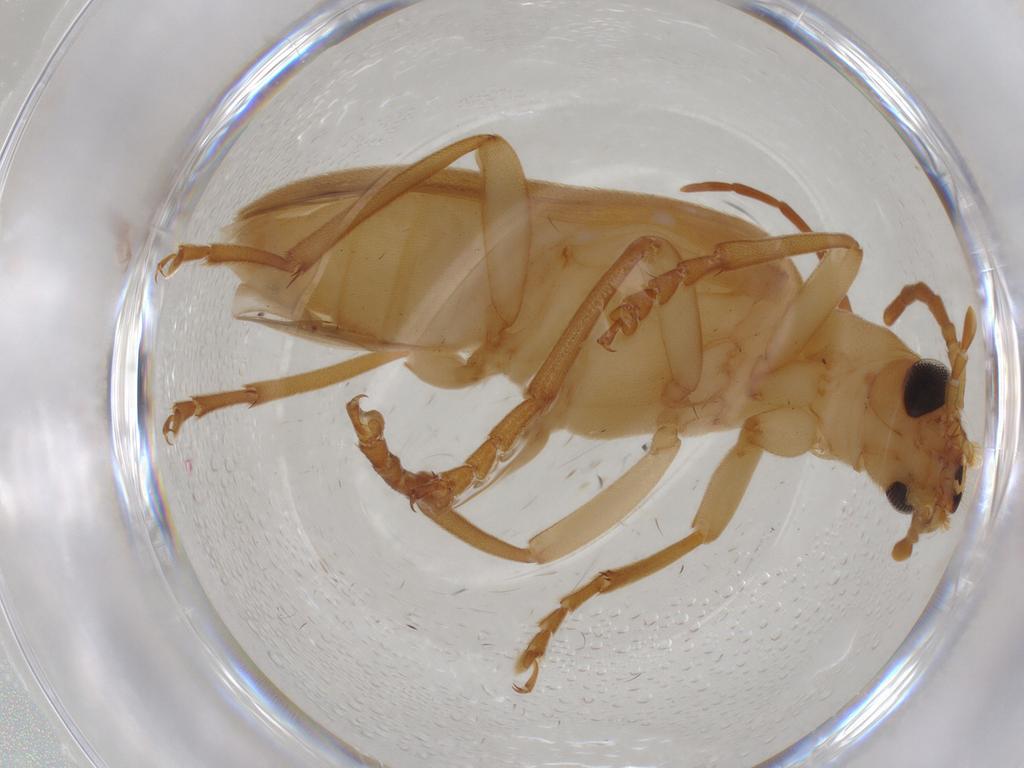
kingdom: Animalia
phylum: Arthropoda
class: Insecta
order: Coleoptera
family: Oedemeridae
